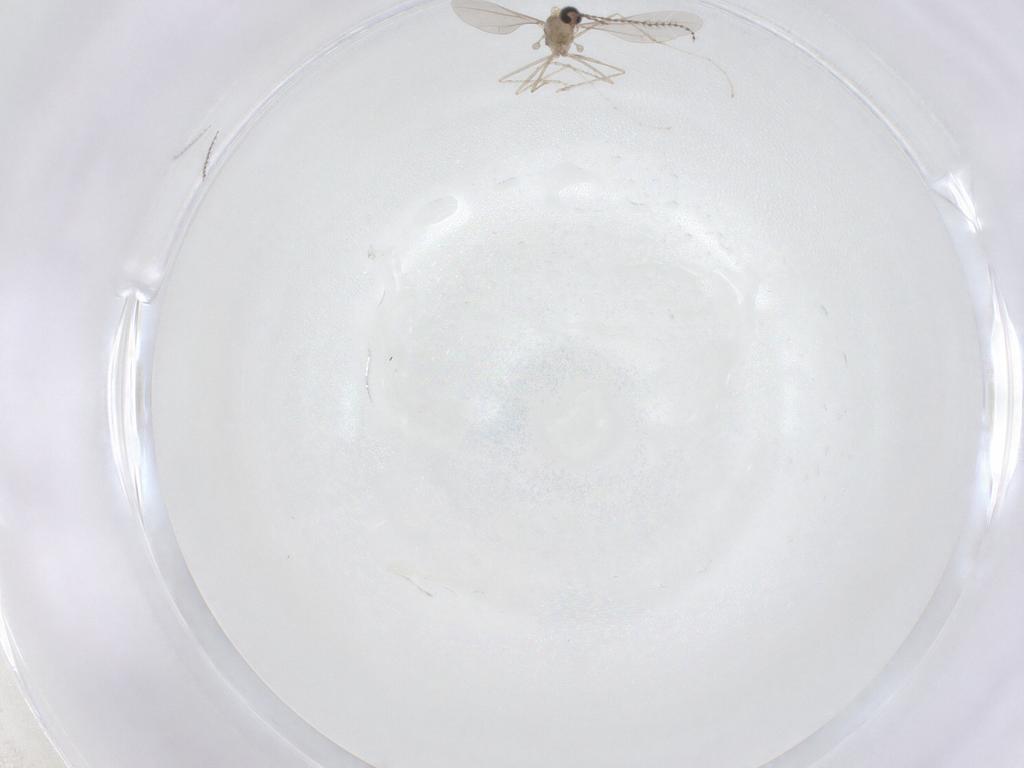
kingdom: Animalia
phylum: Arthropoda
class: Insecta
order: Diptera
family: Cecidomyiidae
